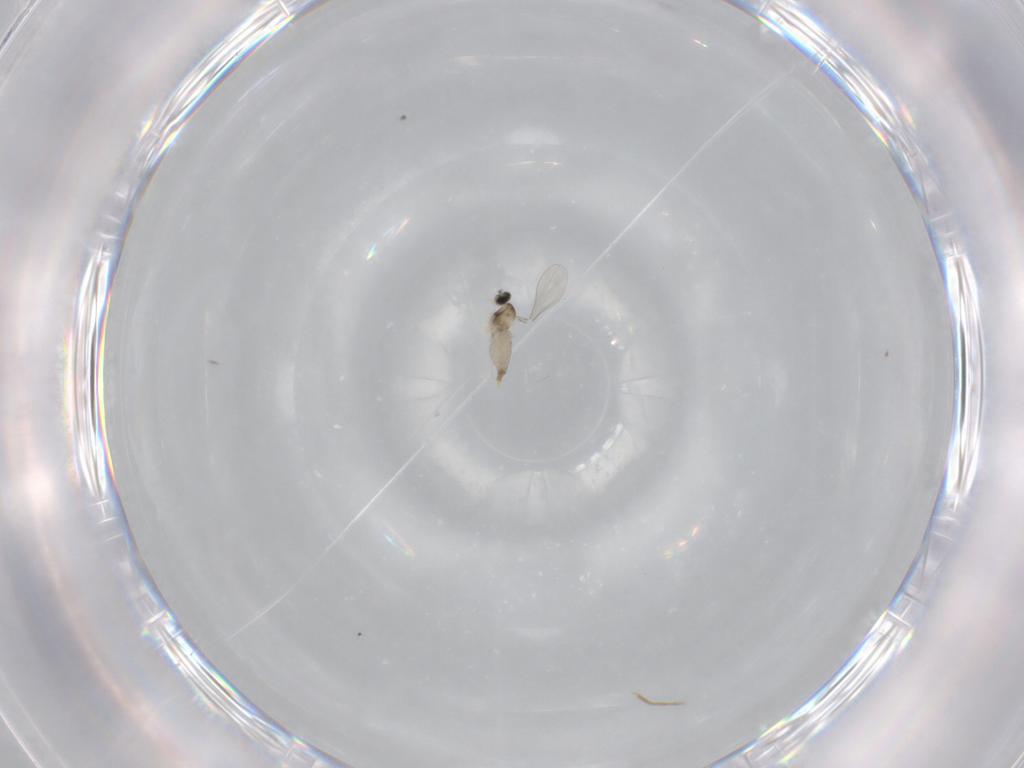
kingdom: Animalia
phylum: Arthropoda
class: Insecta
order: Diptera
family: Cecidomyiidae
